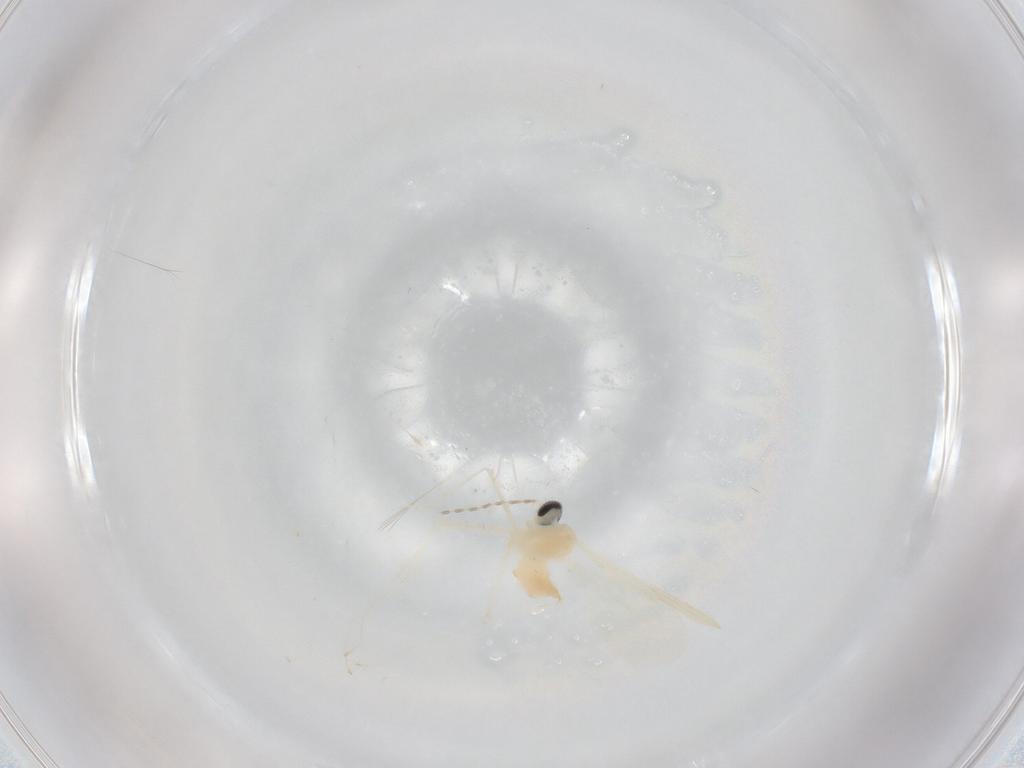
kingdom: Animalia
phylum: Arthropoda
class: Insecta
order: Diptera
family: Cecidomyiidae
